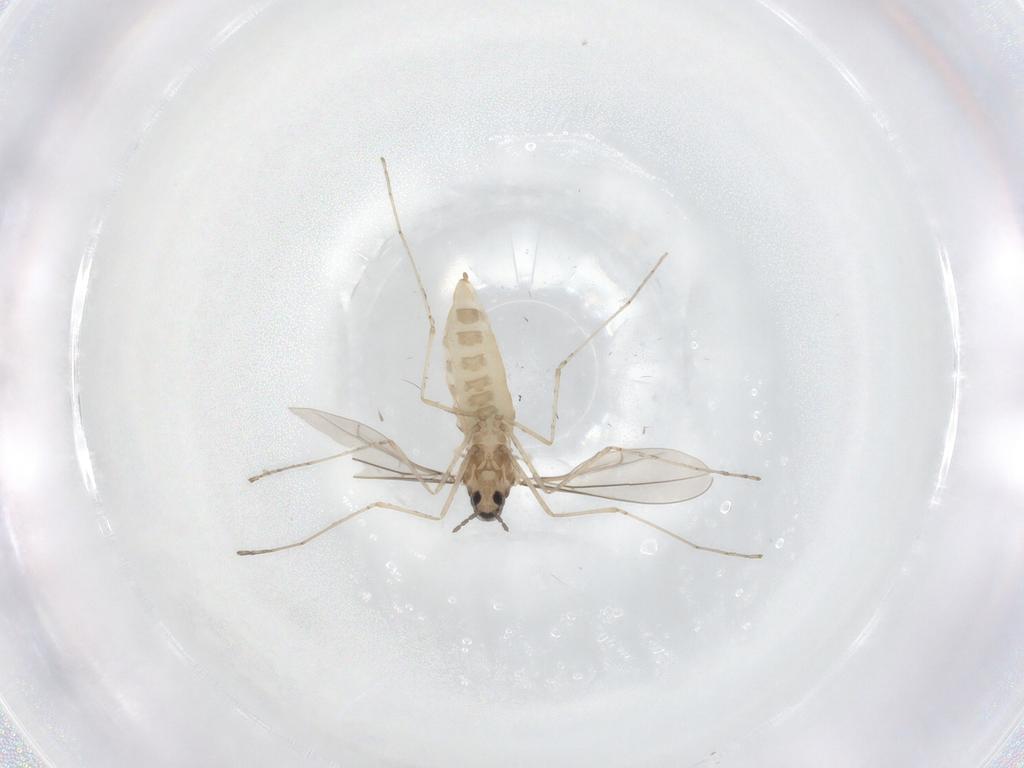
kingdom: Animalia
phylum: Arthropoda
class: Insecta
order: Diptera
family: Cecidomyiidae
